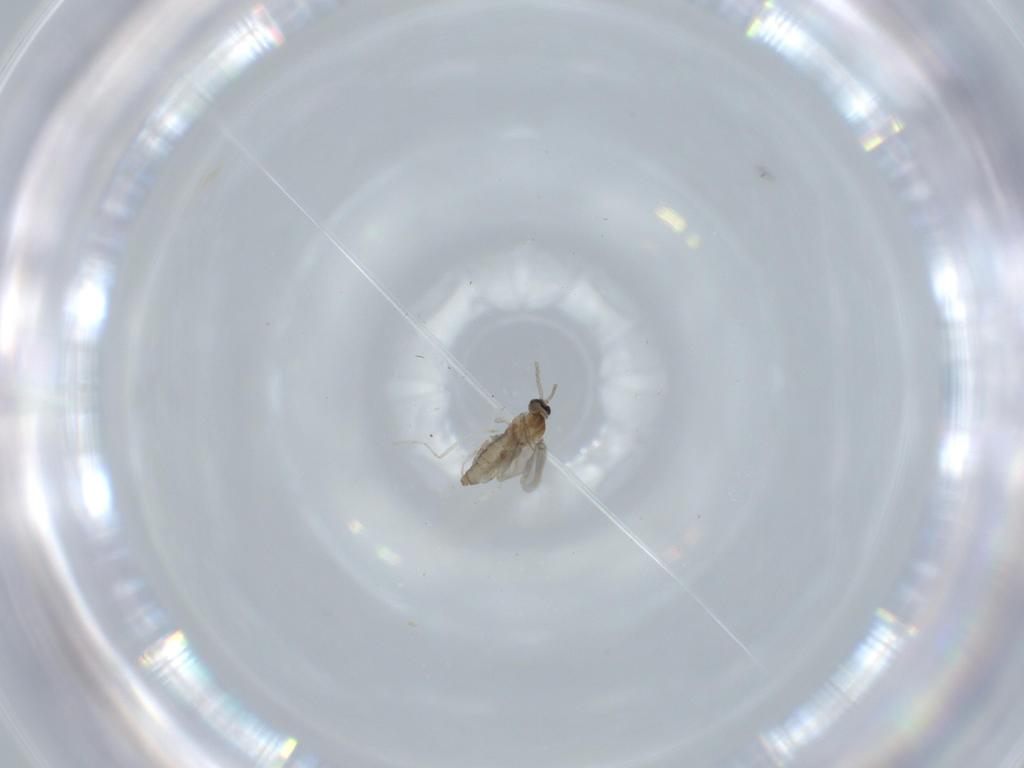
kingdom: Animalia
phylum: Arthropoda
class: Insecta
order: Diptera
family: Cecidomyiidae
